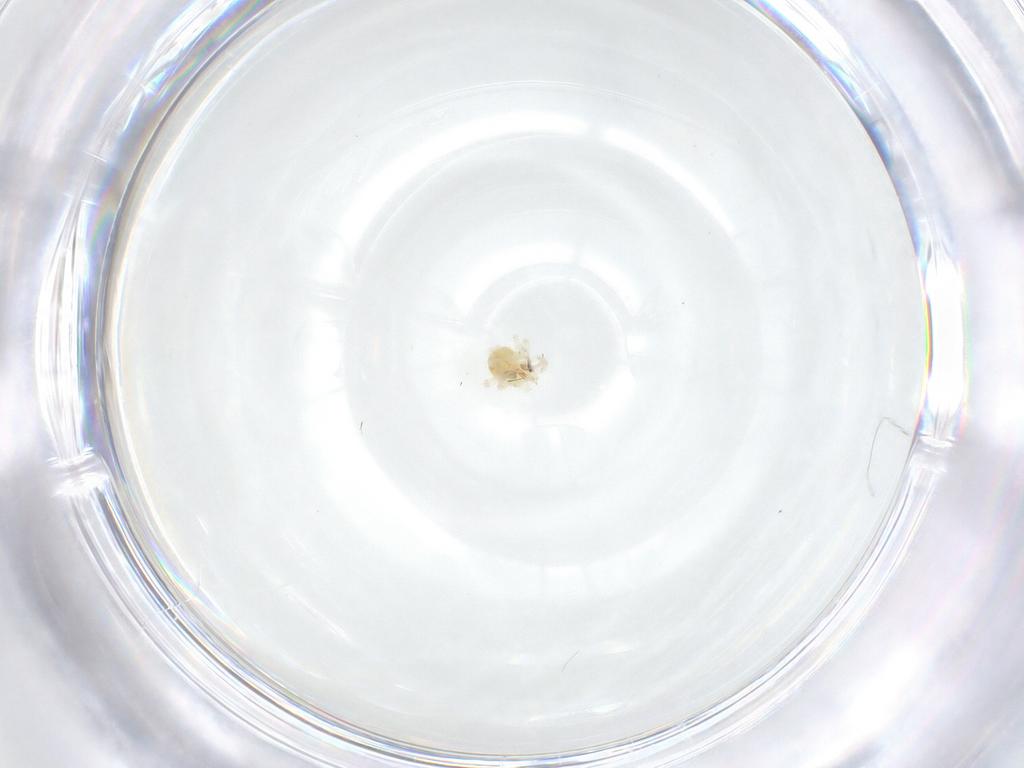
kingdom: Animalia
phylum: Arthropoda
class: Arachnida
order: Trombidiformes
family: Anystidae
